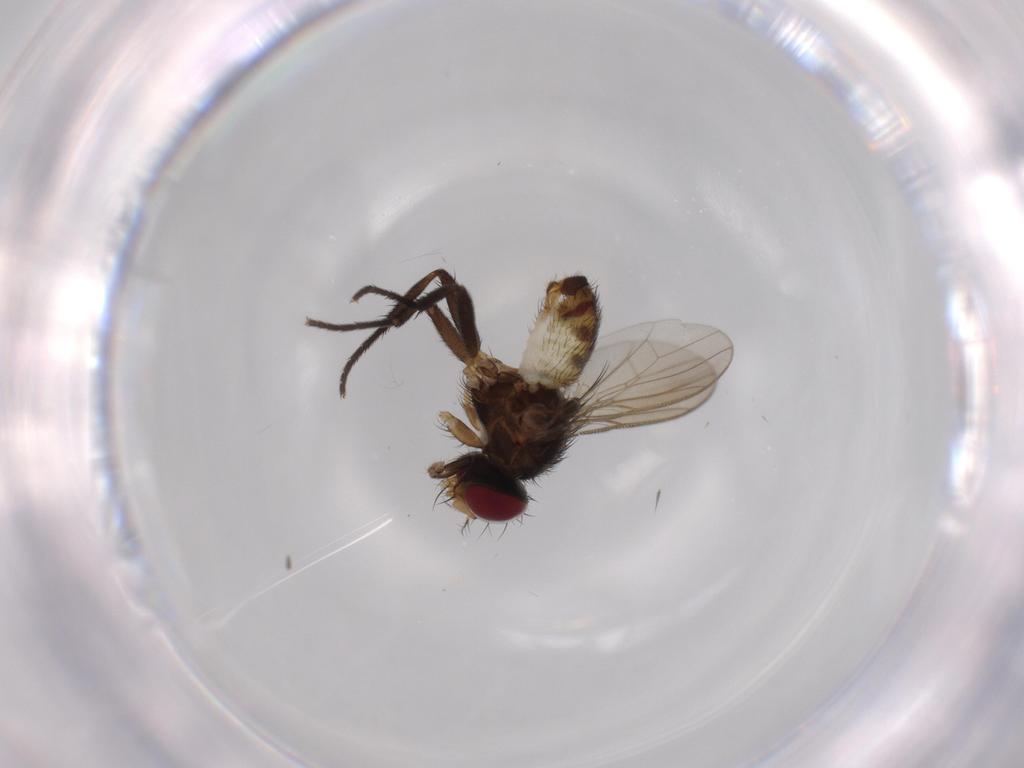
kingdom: Animalia
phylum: Arthropoda
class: Insecta
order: Diptera
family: Anthomyiidae
